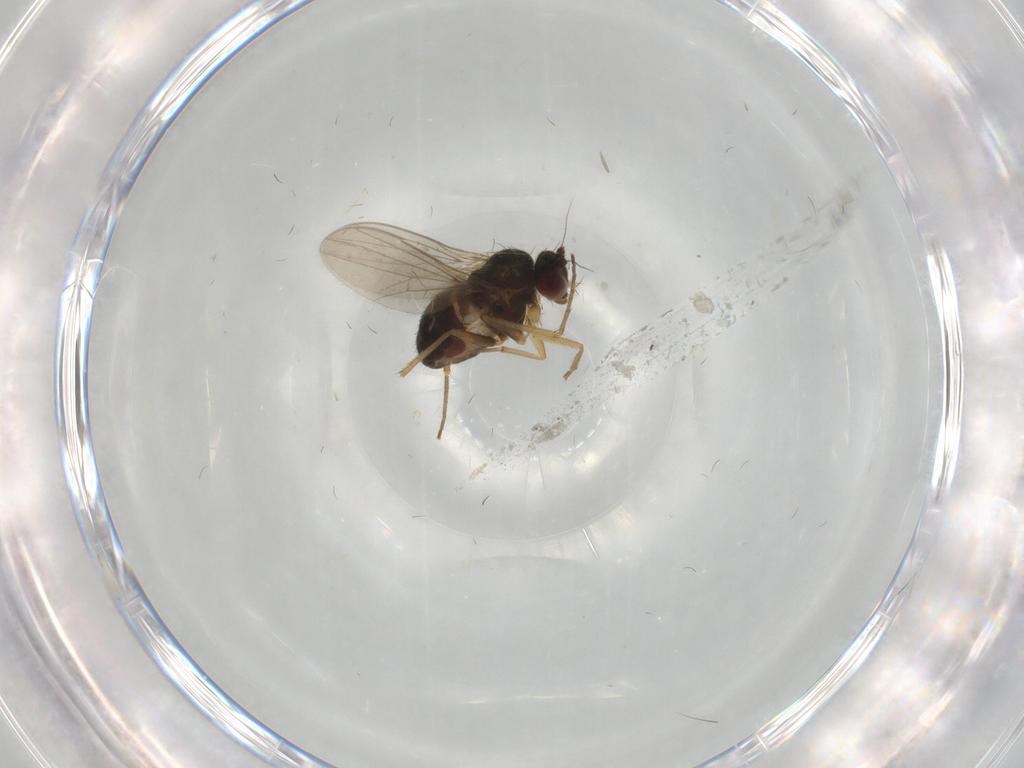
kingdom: Animalia
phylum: Arthropoda
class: Insecta
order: Diptera
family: Dolichopodidae
